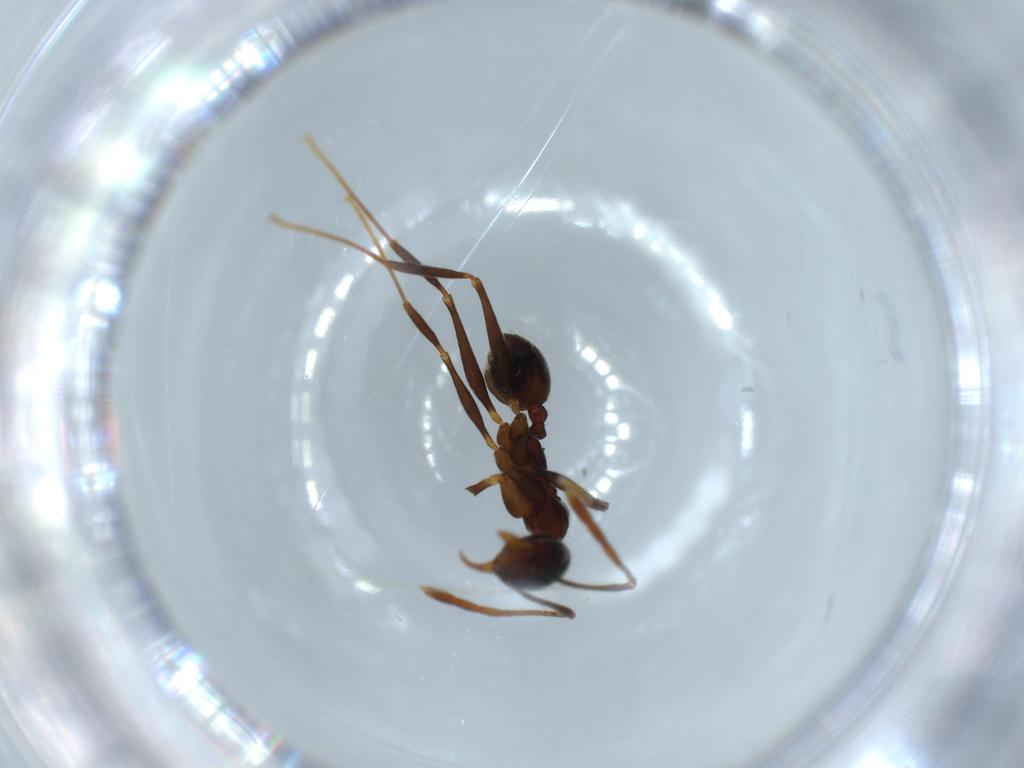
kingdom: Animalia
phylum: Arthropoda
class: Insecta
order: Hymenoptera
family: Formicidae
